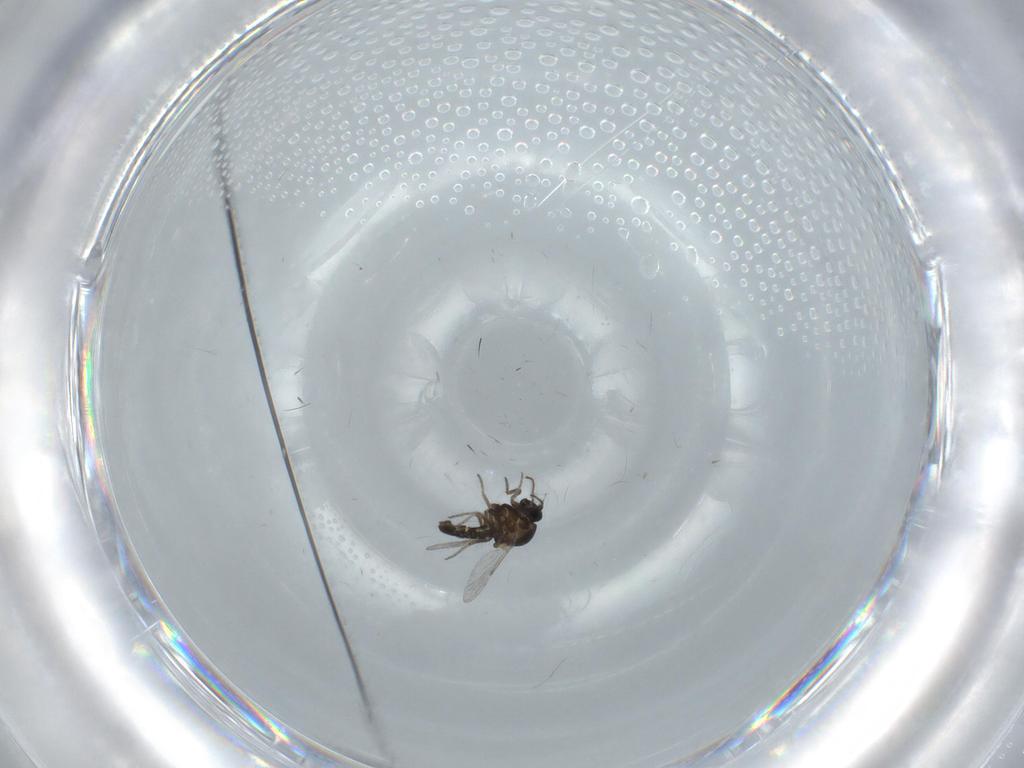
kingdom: Animalia
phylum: Arthropoda
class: Insecta
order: Diptera
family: Ceratopogonidae
